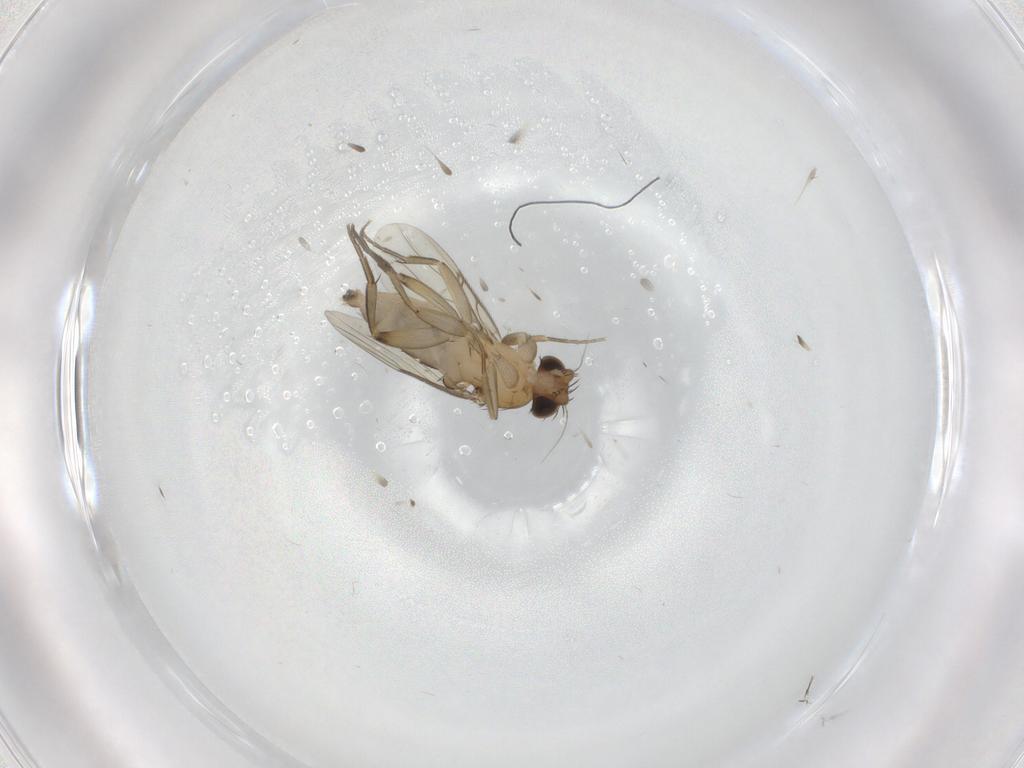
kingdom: Animalia
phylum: Arthropoda
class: Insecta
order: Diptera
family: Phoridae
